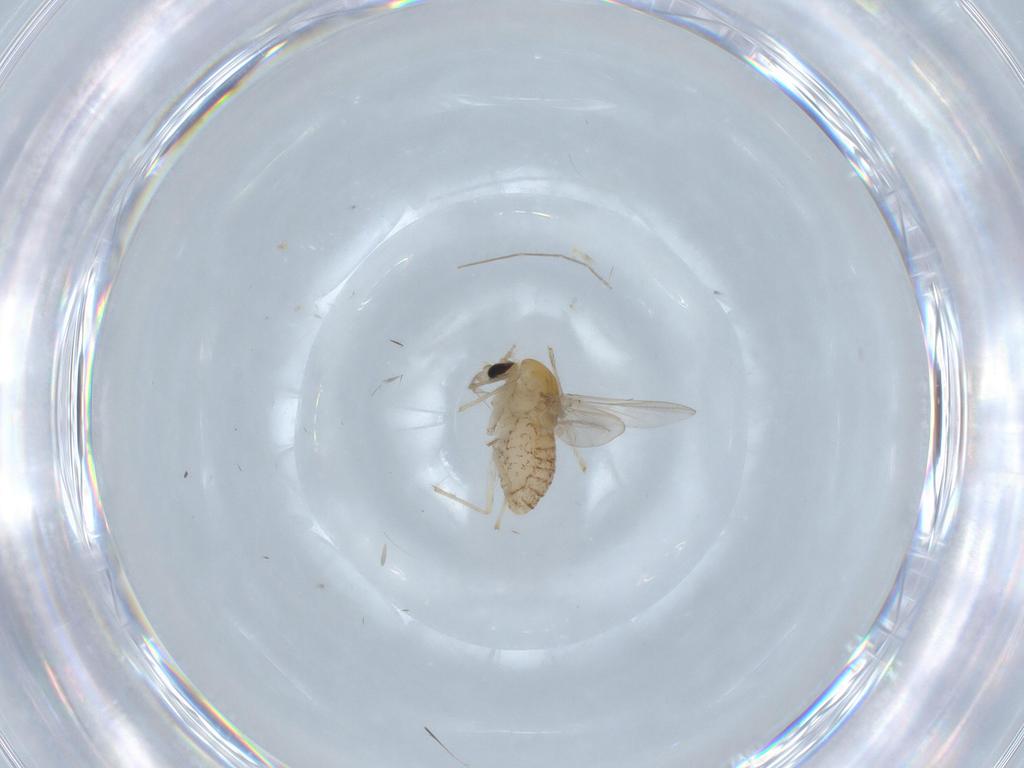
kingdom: Animalia
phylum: Arthropoda
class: Insecta
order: Diptera
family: Chironomidae
